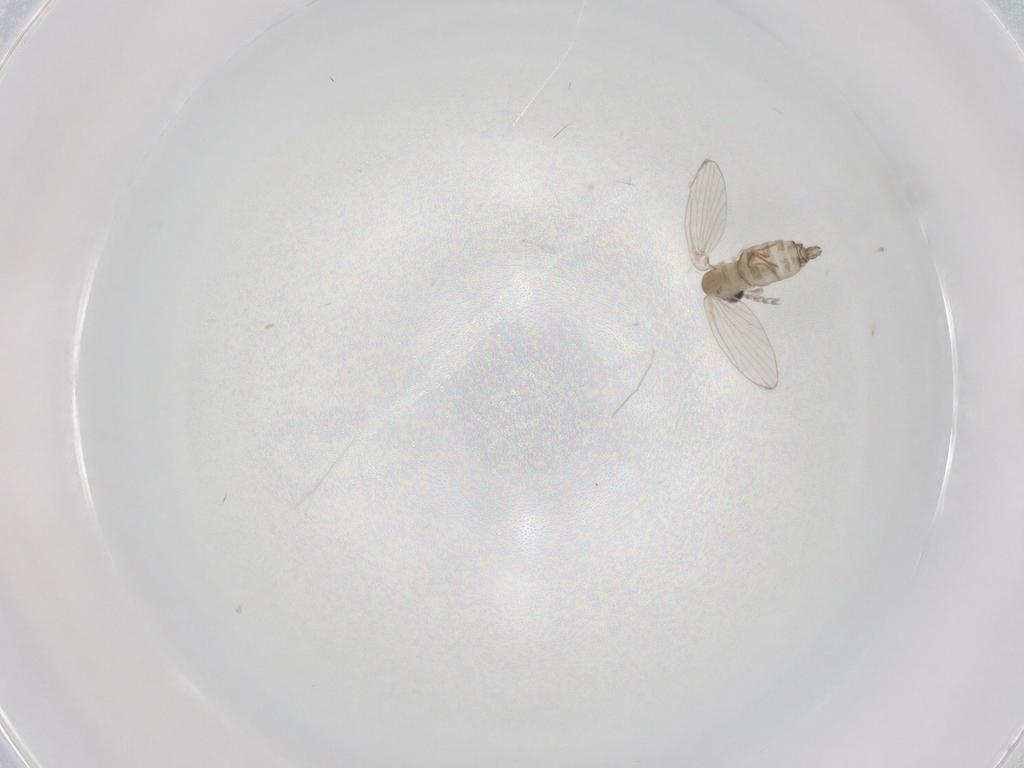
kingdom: Animalia
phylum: Arthropoda
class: Insecta
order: Diptera
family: Chironomidae
